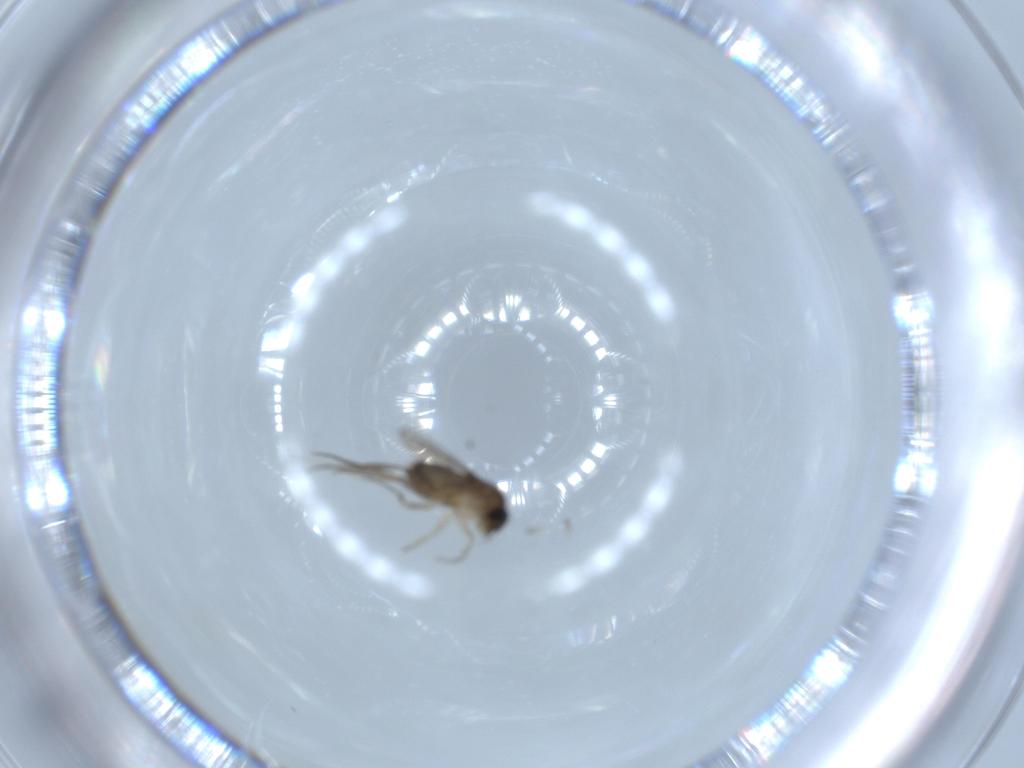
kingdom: Animalia
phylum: Arthropoda
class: Insecta
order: Diptera
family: Phoridae
